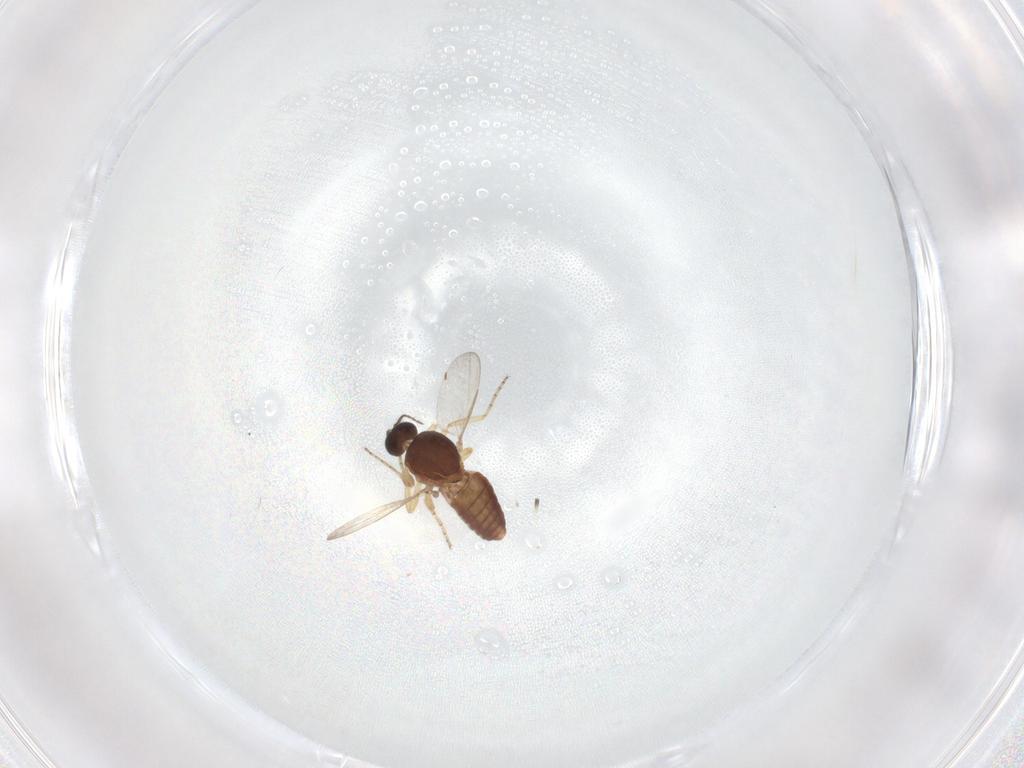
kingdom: Animalia
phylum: Arthropoda
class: Insecta
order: Diptera
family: Ceratopogonidae
